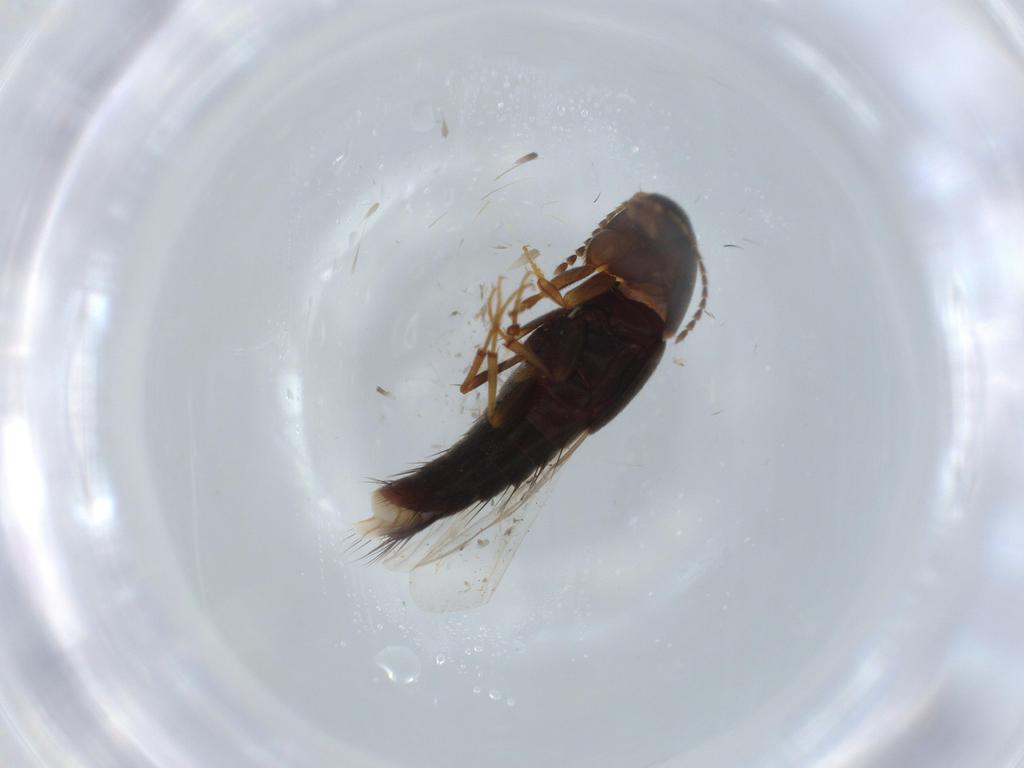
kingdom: Animalia
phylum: Arthropoda
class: Insecta
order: Coleoptera
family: Staphylinidae
